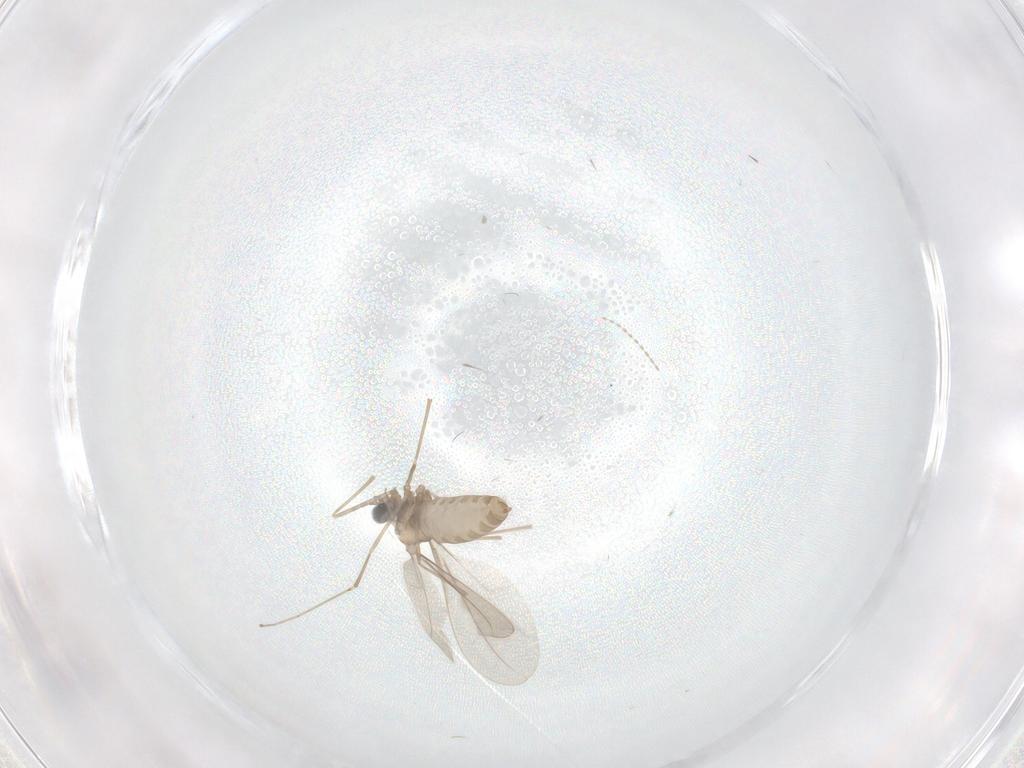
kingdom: Animalia
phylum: Arthropoda
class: Insecta
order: Diptera
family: Cecidomyiidae
